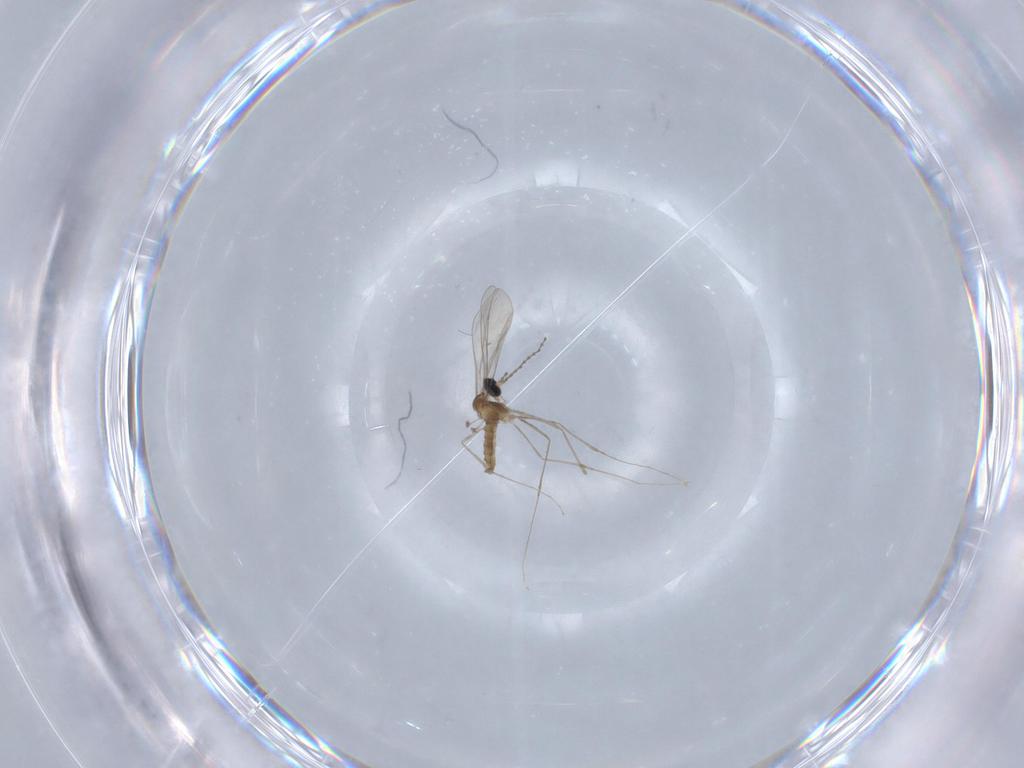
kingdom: Animalia
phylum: Arthropoda
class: Insecta
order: Diptera
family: Cecidomyiidae
